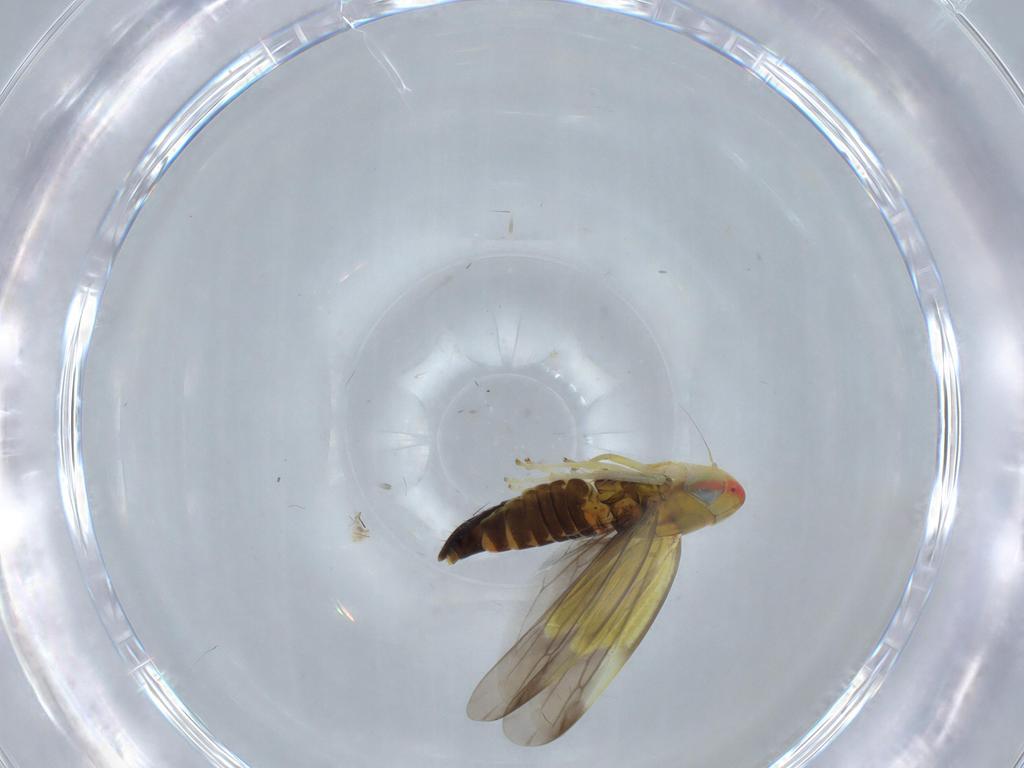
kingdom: Animalia
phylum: Arthropoda
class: Insecta
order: Hemiptera
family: Cicadellidae
